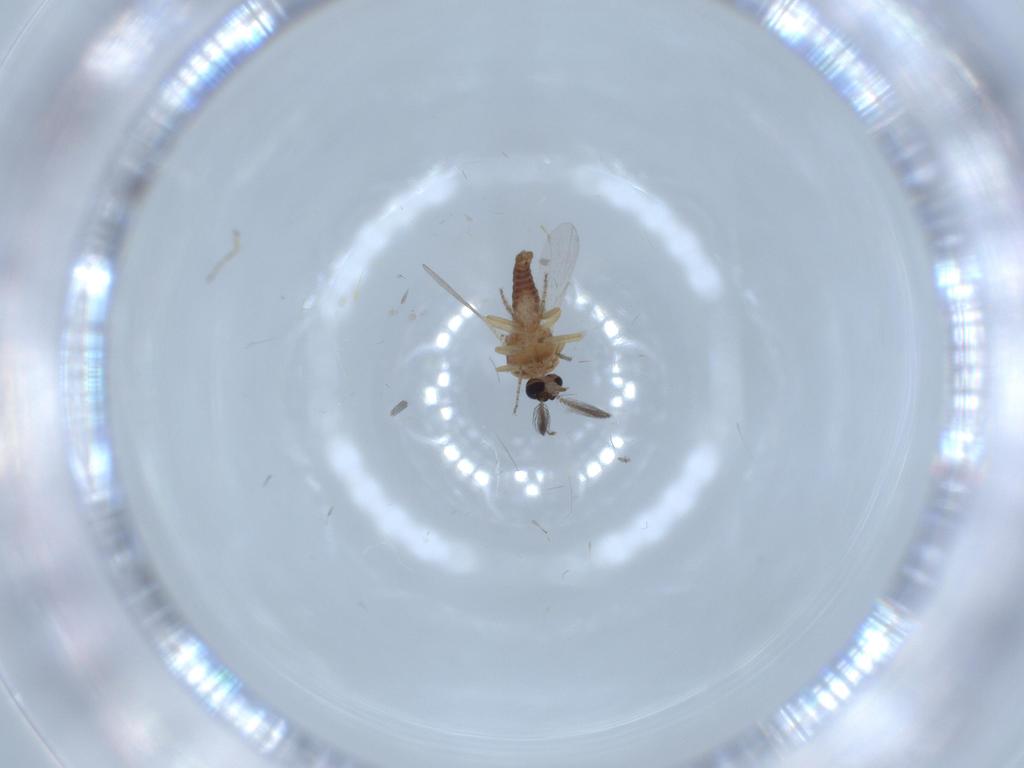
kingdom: Animalia
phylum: Arthropoda
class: Insecta
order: Diptera
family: Ceratopogonidae
